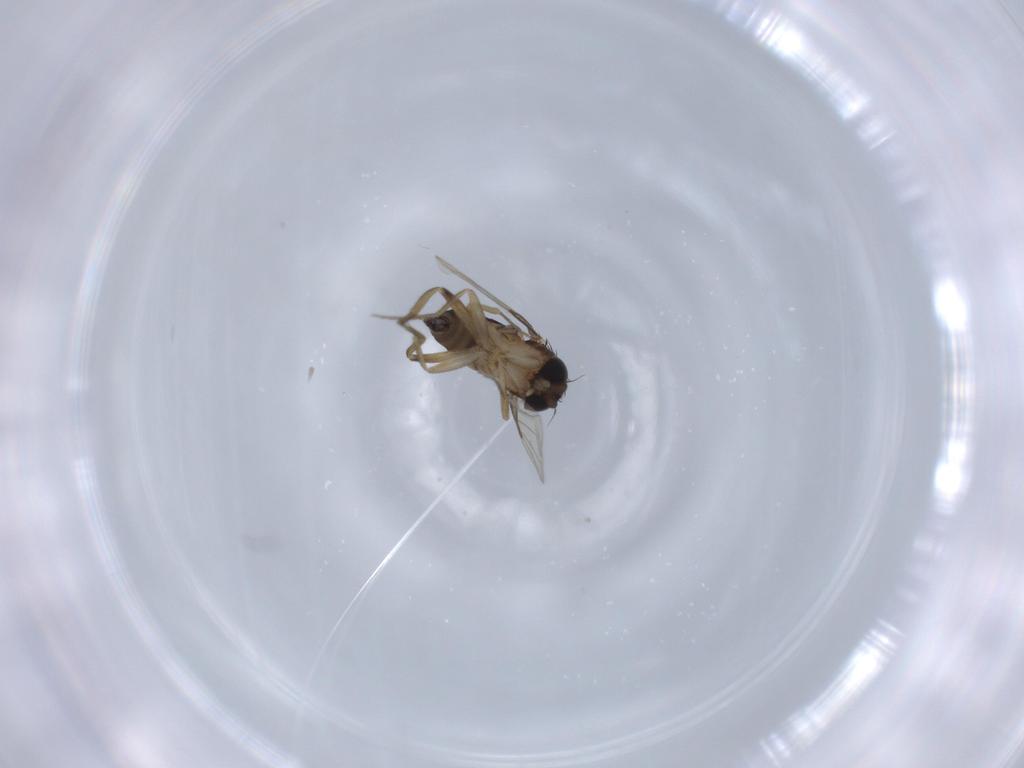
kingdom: Animalia
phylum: Arthropoda
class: Insecta
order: Diptera
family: Phoridae
